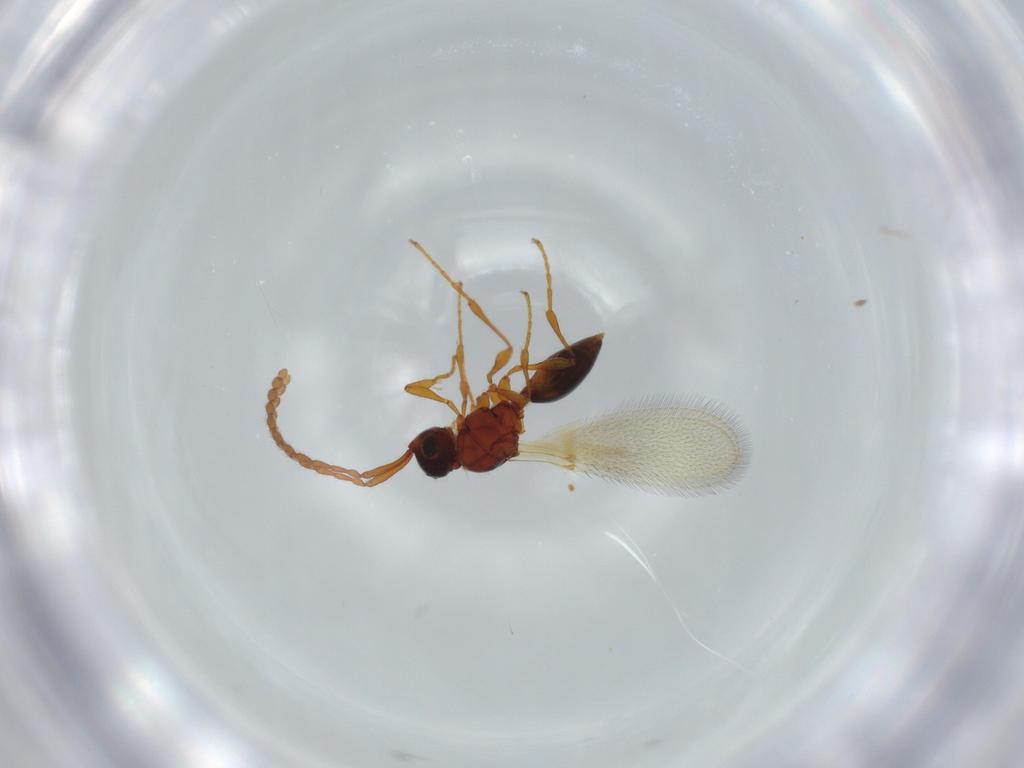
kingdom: Animalia
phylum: Arthropoda
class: Insecta
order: Hymenoptera
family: Diapriidae
